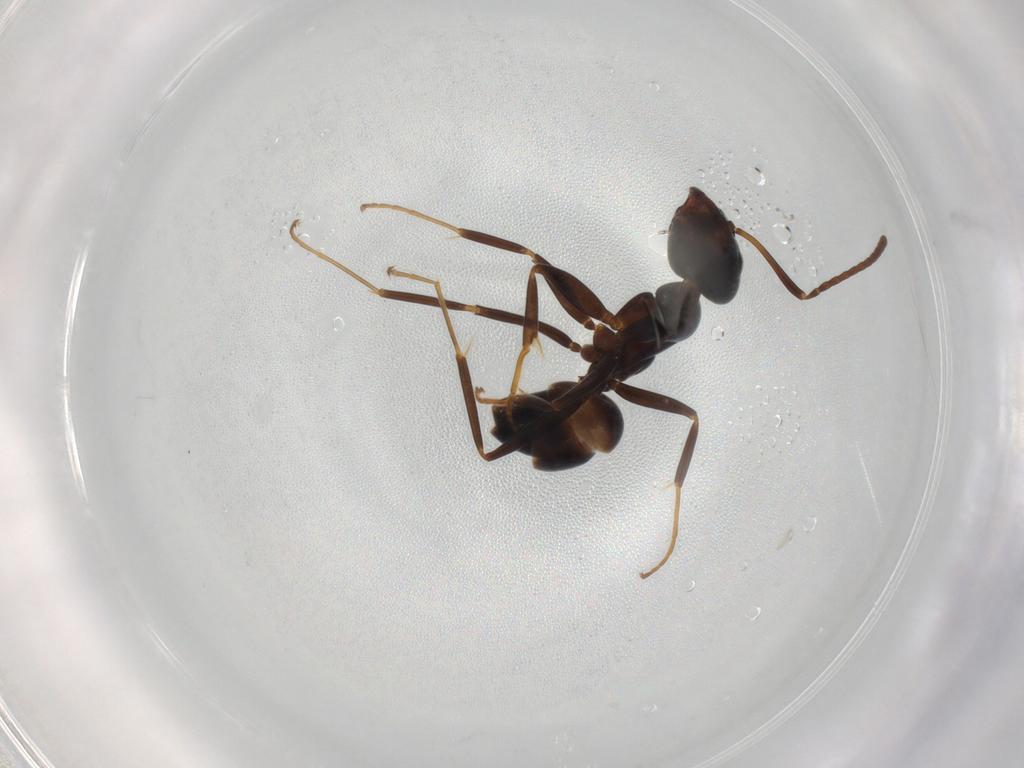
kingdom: Animalia
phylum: Arthropoda
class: Insecta
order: Hymenoptera
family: Formicidae
